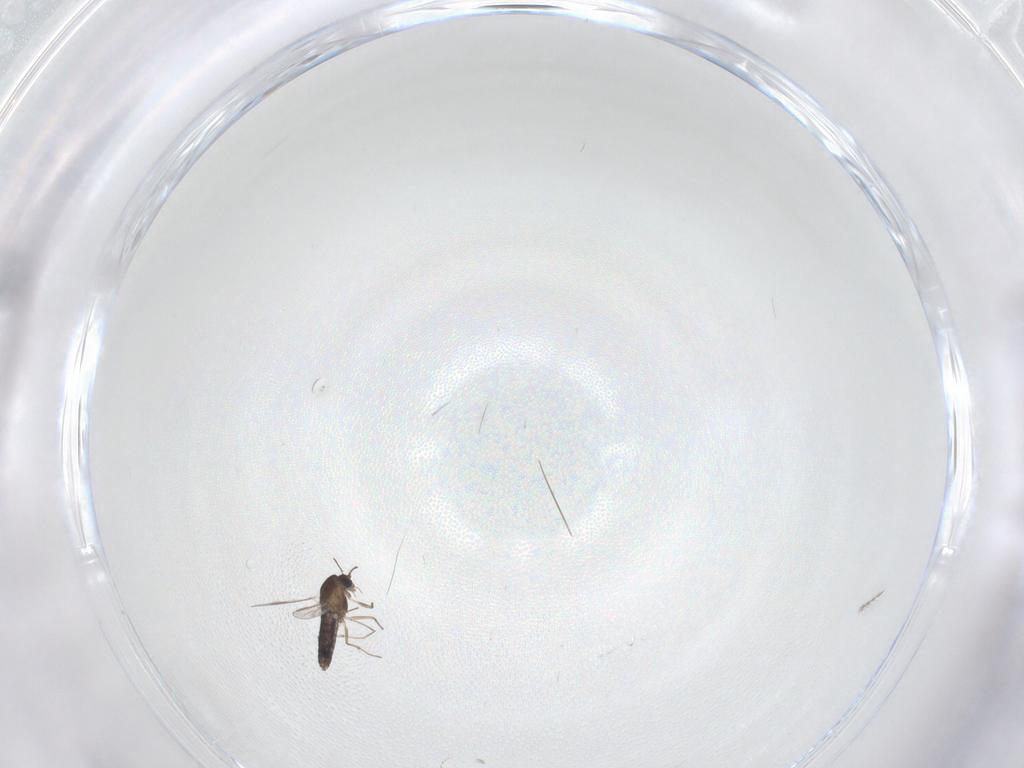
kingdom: Animalia
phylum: Arthropoda
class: Insecta
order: Diptera
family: Chironomidae
